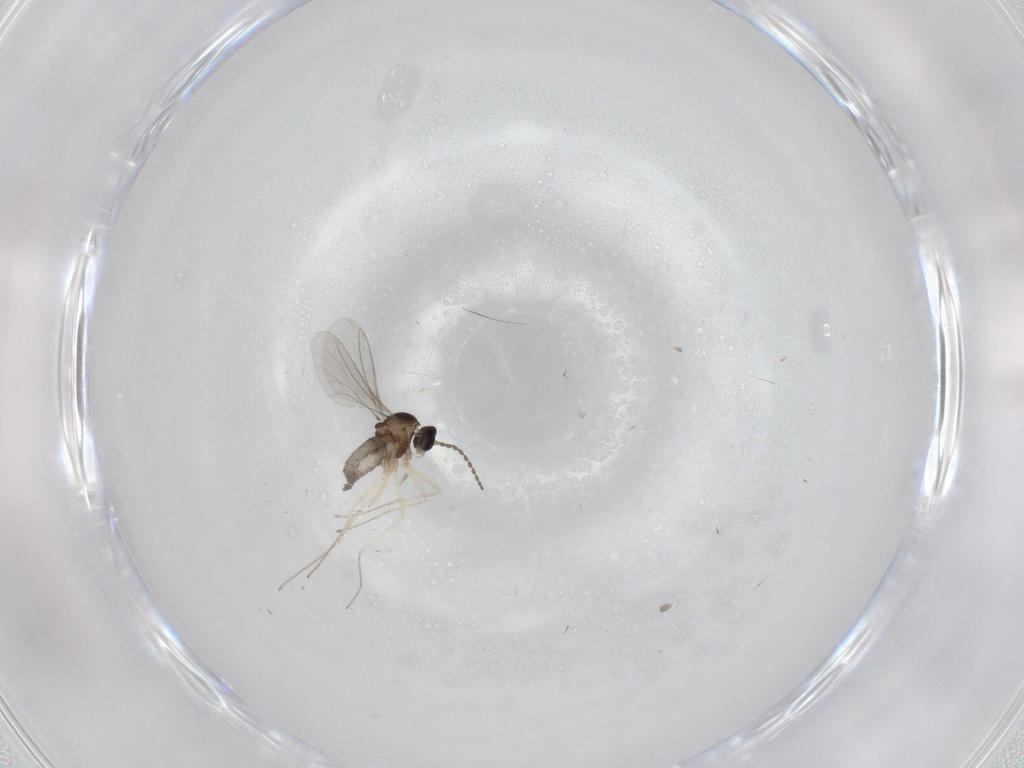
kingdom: Animalia
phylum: Arthropoda
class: Insecta
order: Diptera
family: Cecidomyiidae
